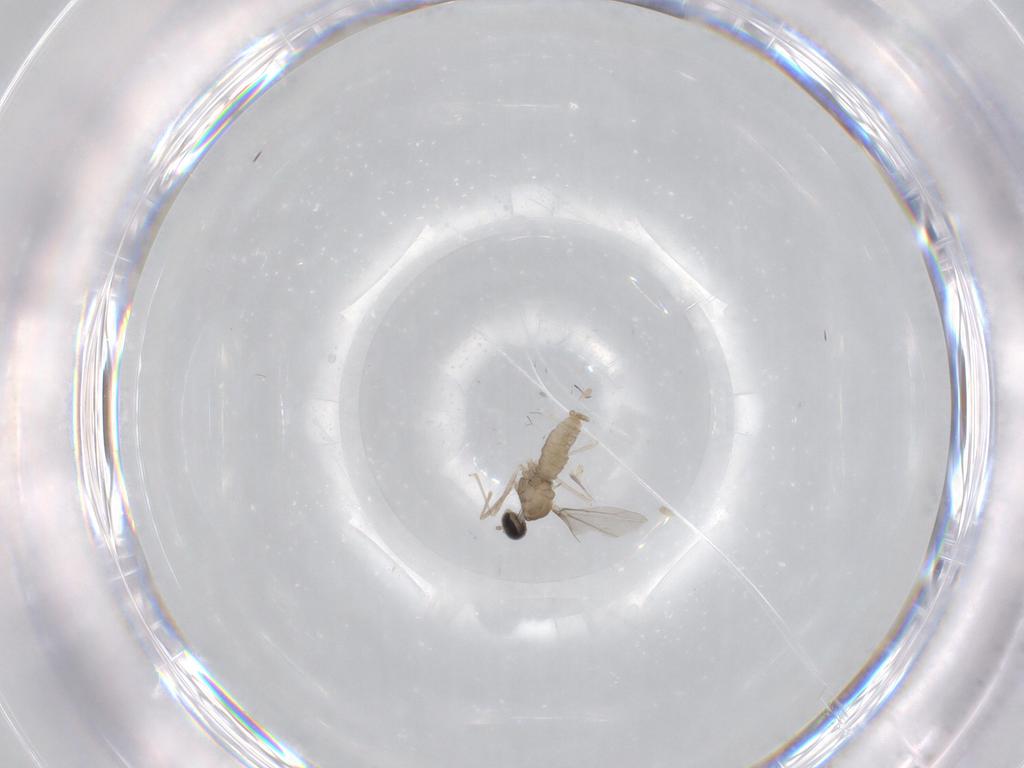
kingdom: Animalia
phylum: Arthropoda
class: Insecta
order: Diptera
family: Cecidomyiidae
